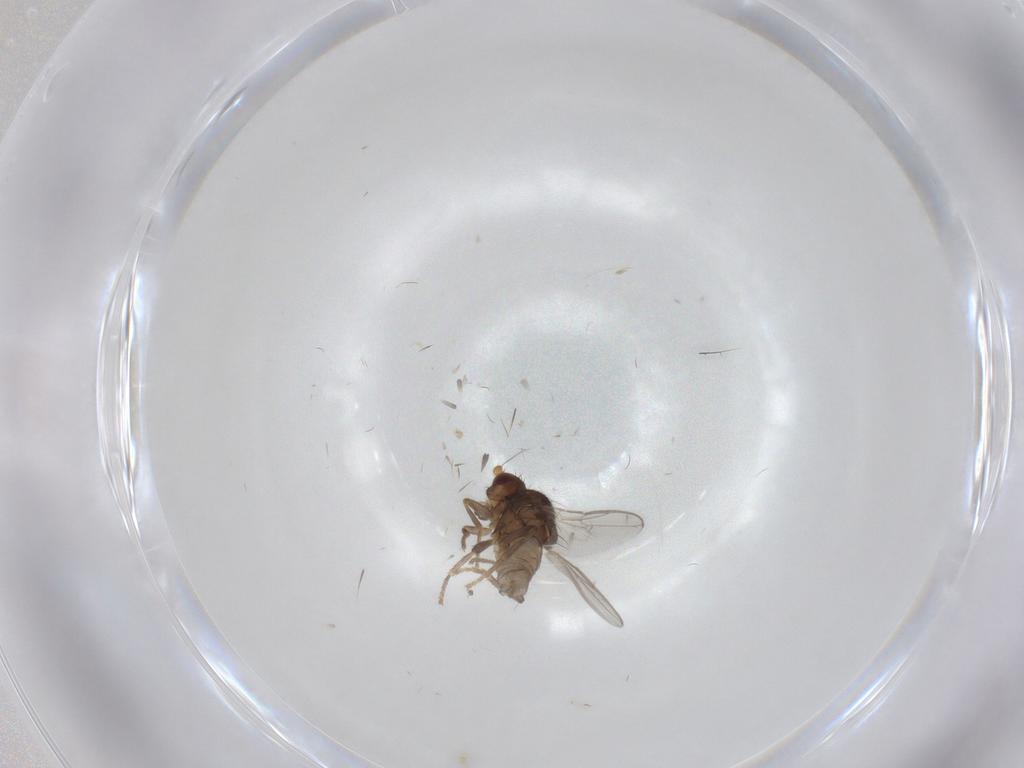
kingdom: Animalia
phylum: Arthropoda
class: Insecta
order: Diptera
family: Sphaeroceridae
